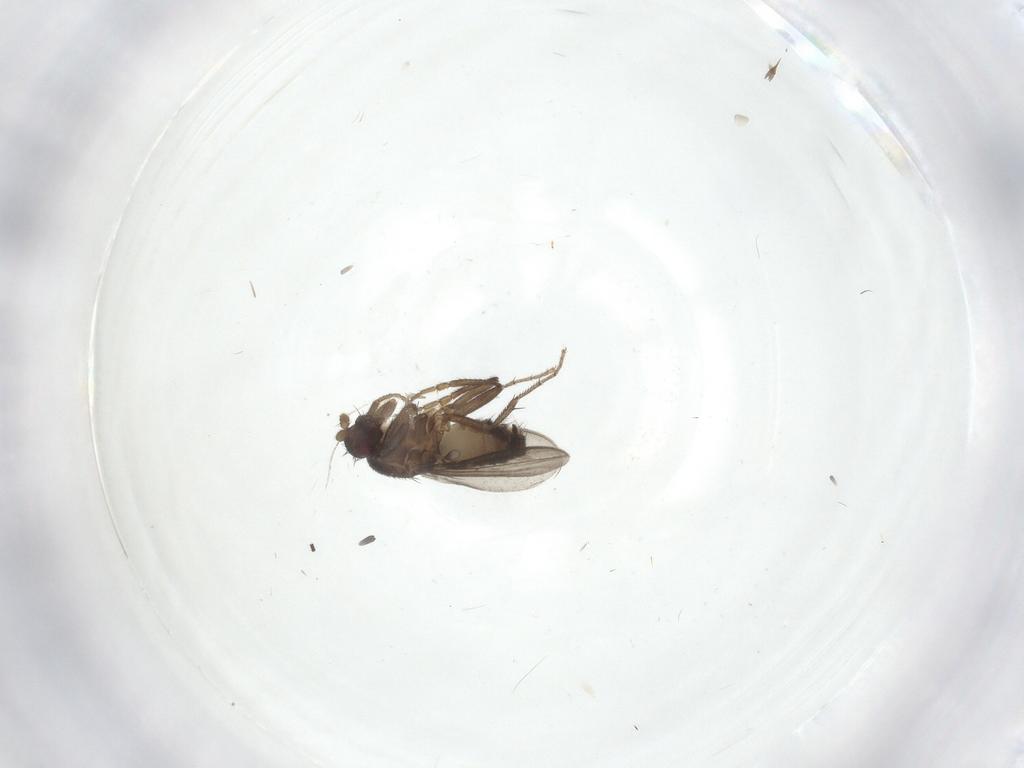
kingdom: Animalia
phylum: Arthropoda
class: Insecta
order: Diptera
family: Sphaeroceridae
